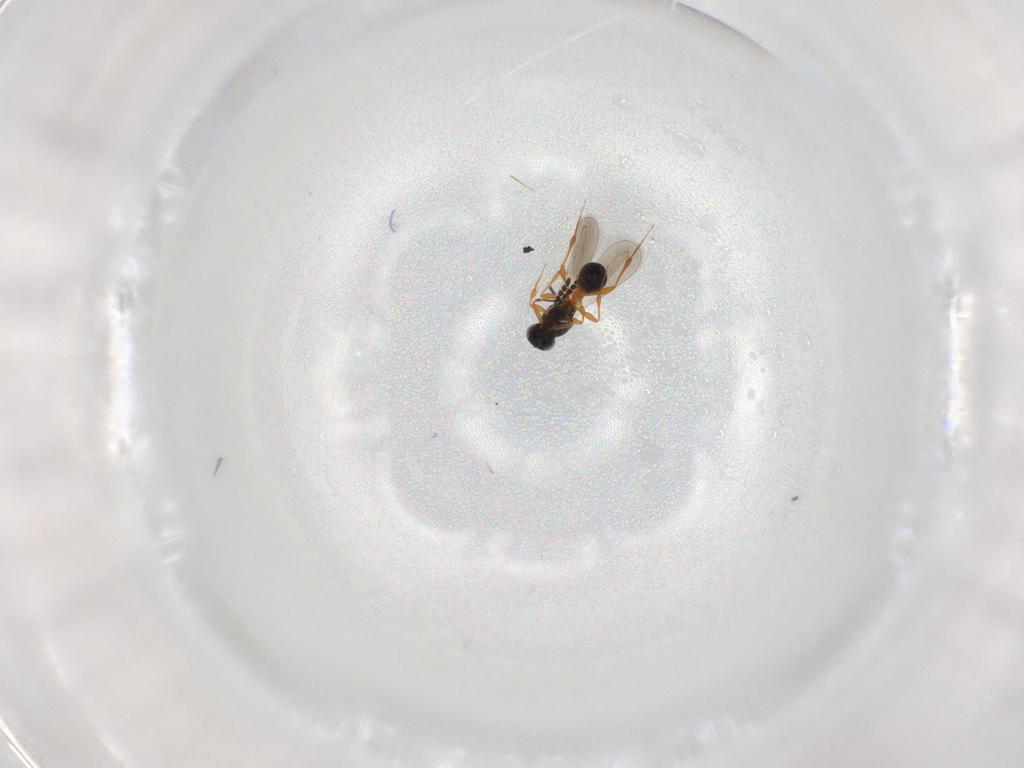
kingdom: Animalia
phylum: Arthropoda
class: Insecta
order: Hymenoptera
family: Platygastridae
